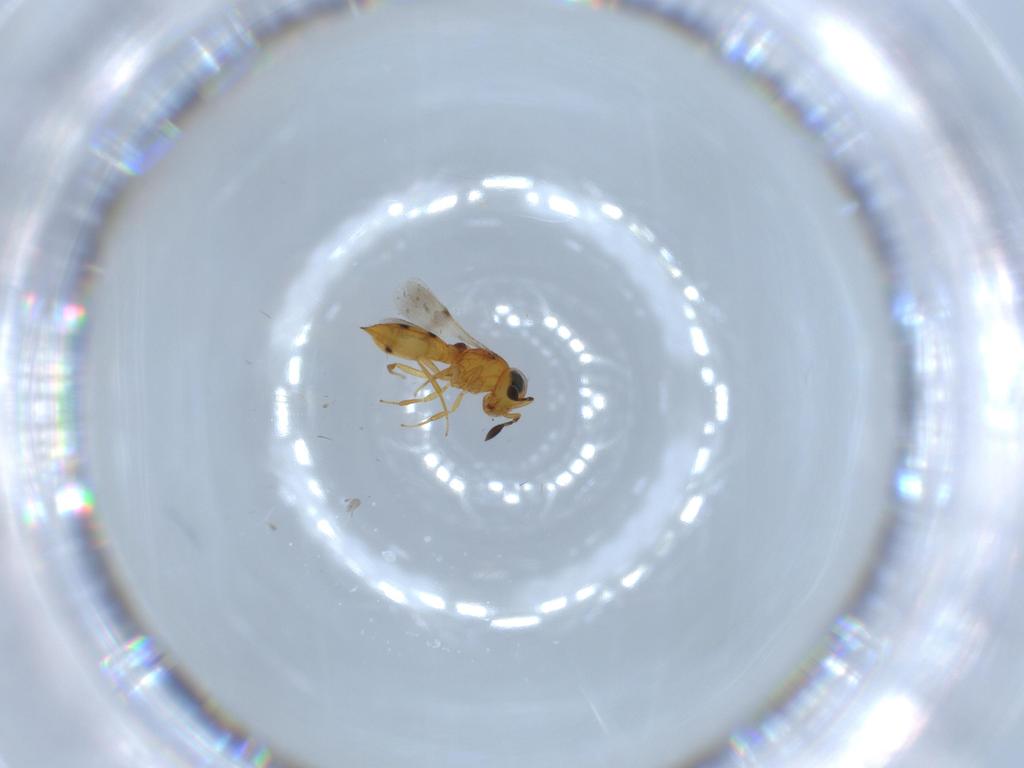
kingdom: Animalia
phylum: Arthropoda
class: Insecta
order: Hymenoptera
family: Scelionidae
